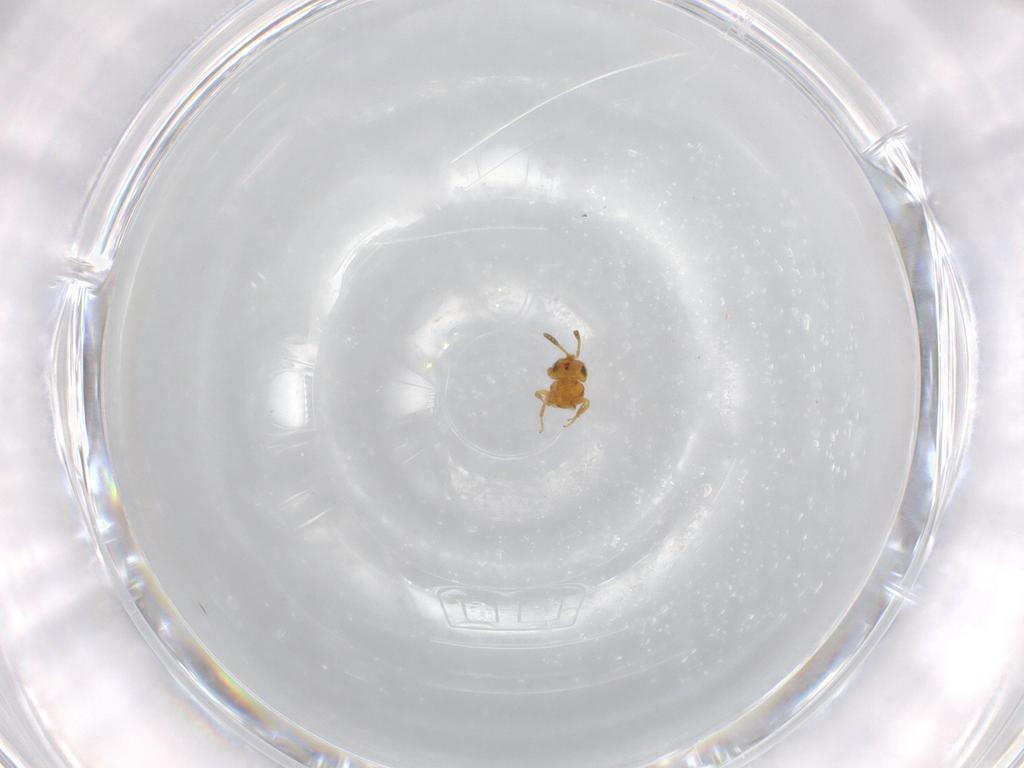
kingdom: Animalia
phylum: Arthropoda
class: Insecta
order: Hymenoptera
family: Scelionidae
